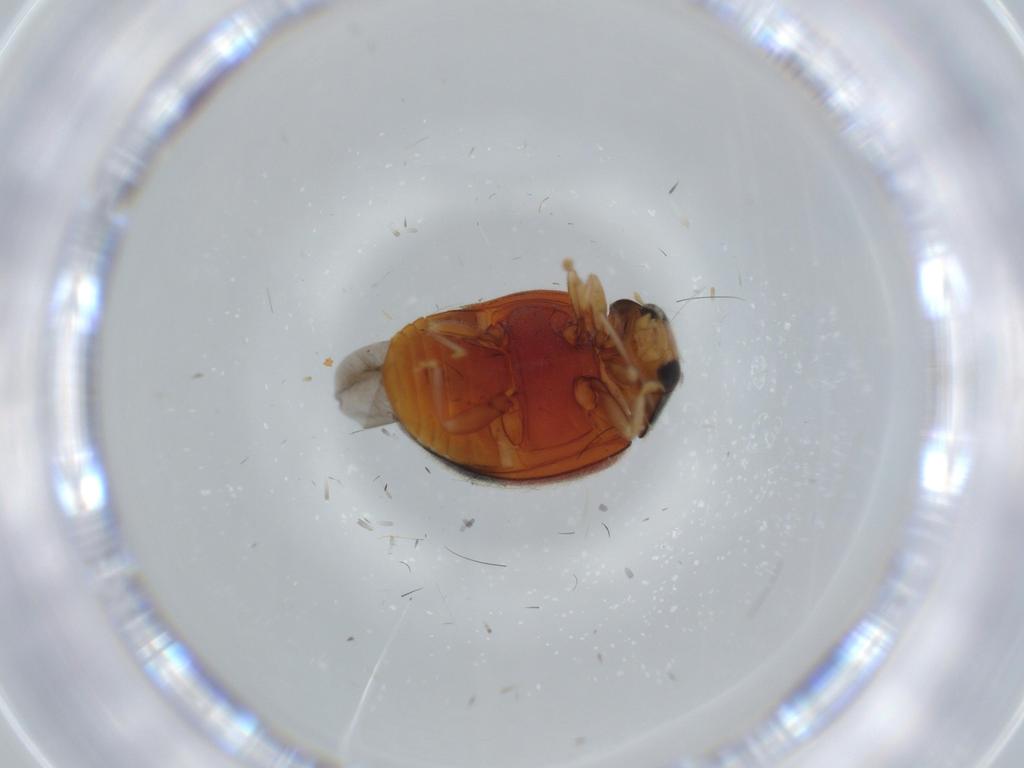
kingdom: Animalia
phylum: Arthropoda
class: Insecta
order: Coleoptera
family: Coccinellidae
